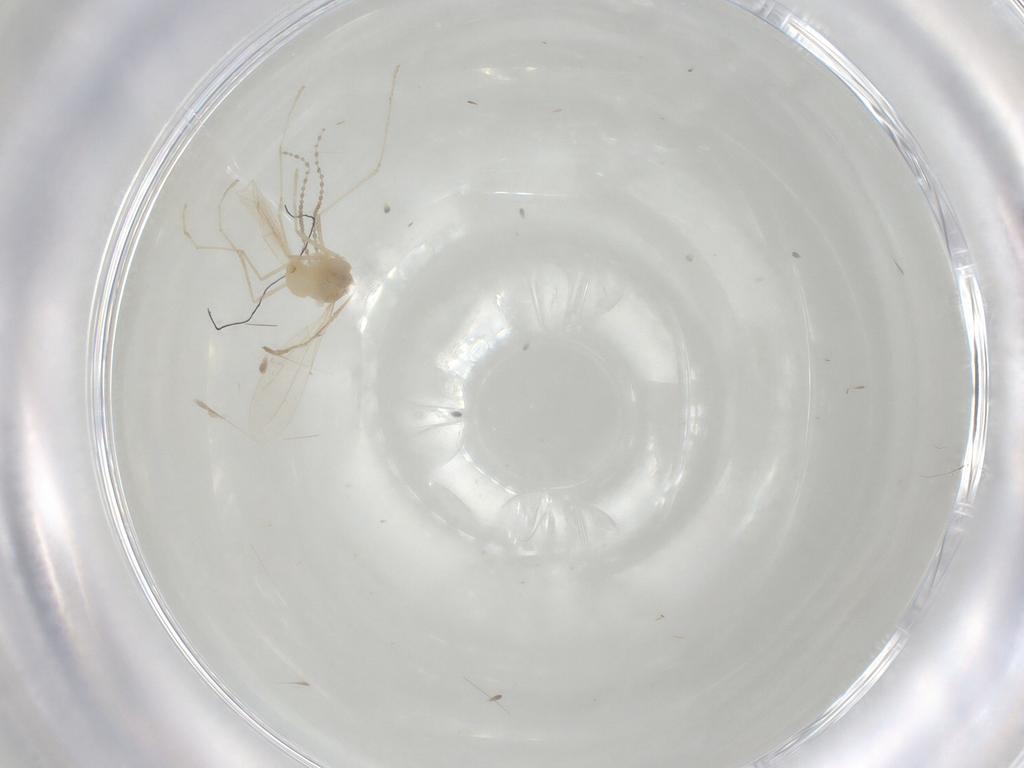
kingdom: Animalia
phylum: Arthropoda
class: Insecta
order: Diptera
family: Cecidomyiidae
